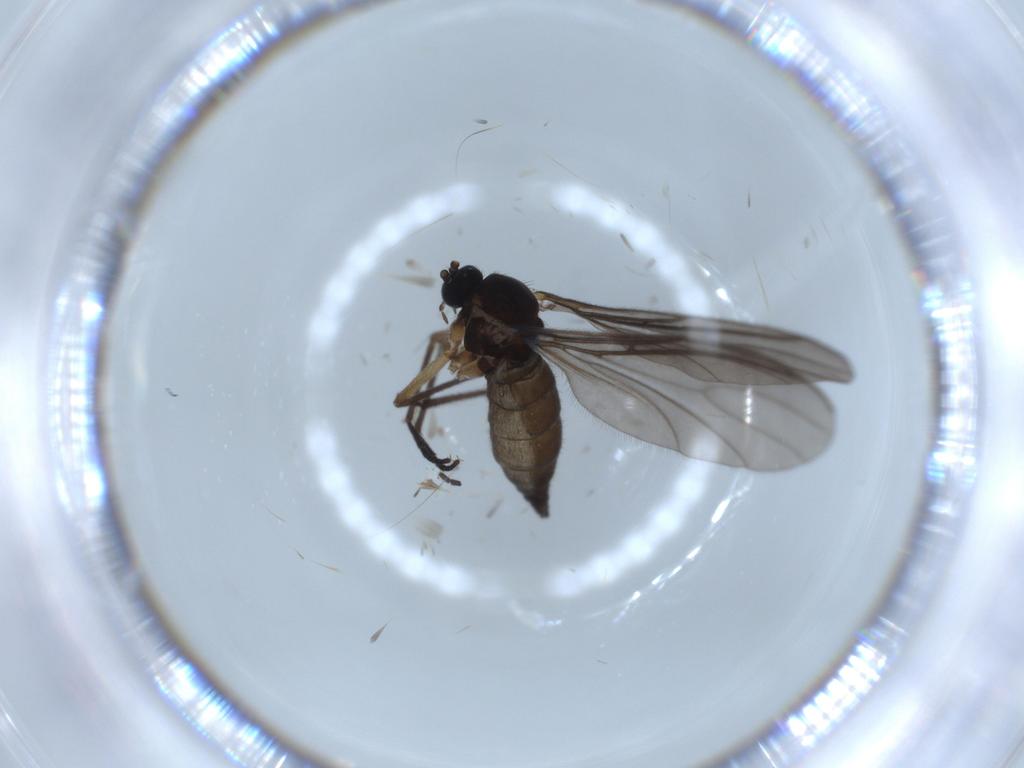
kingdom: Animalia
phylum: Arthropoda
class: Insecta
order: Diptera
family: Sciaridae
